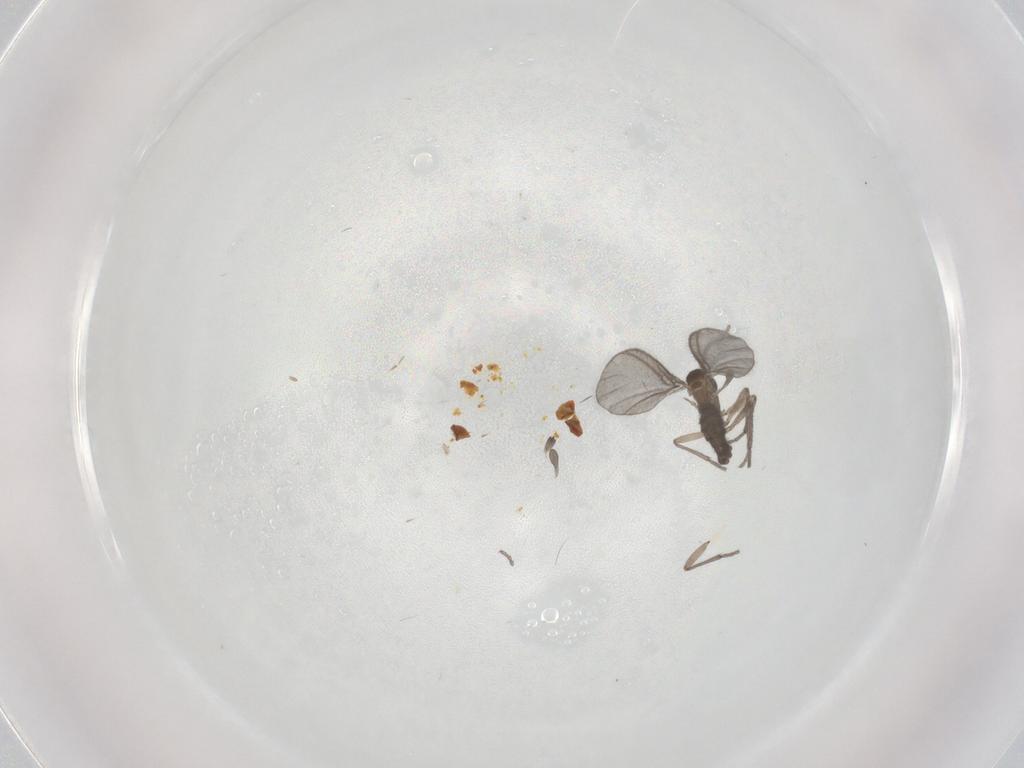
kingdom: Animalia
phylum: Arthropoda
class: Insecta
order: Diptera
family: Sciaridae
